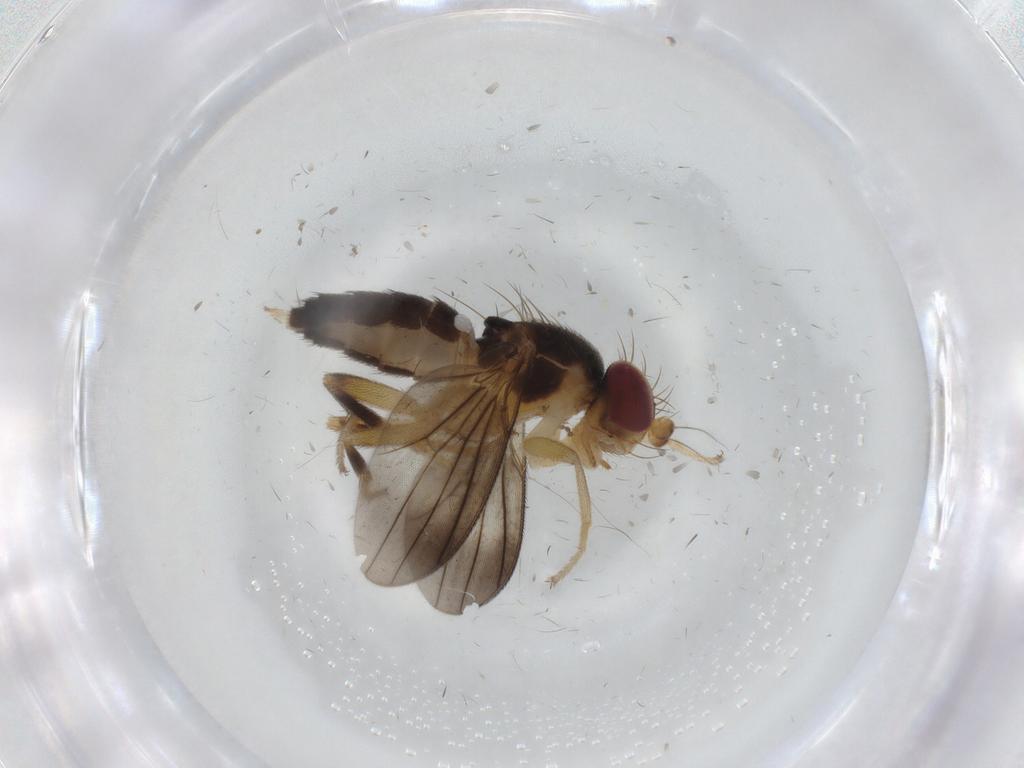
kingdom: Animalia
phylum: Arthropoda
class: Insecta
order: Diptera
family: Clusiidae
